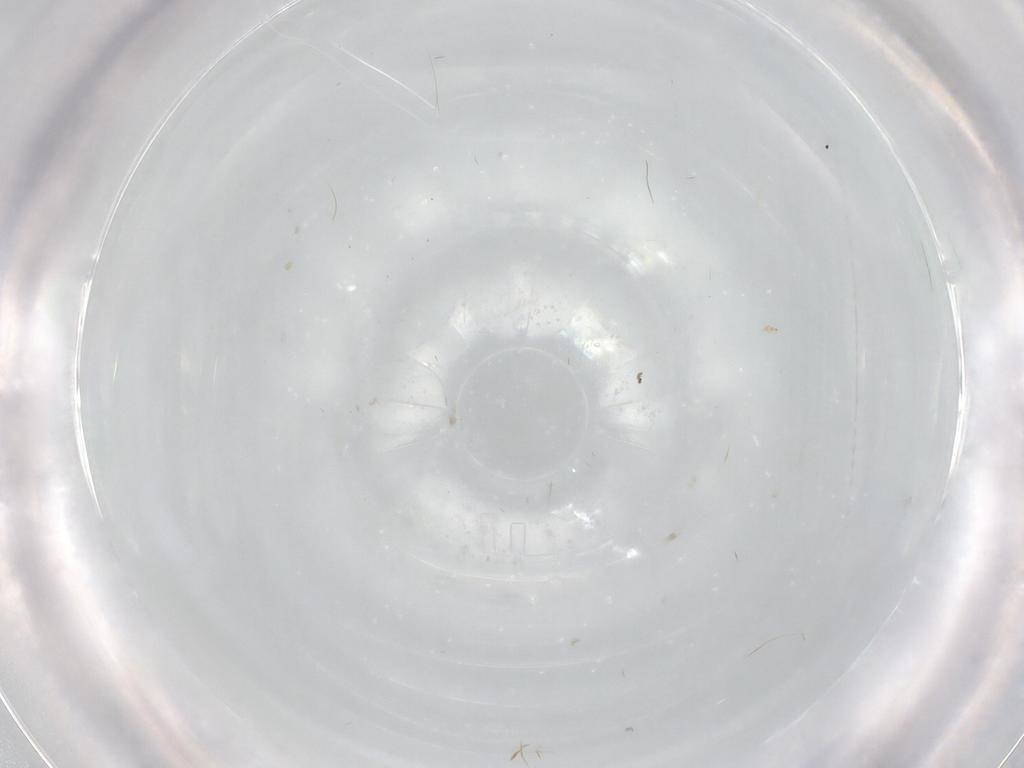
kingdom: Animalia
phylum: Arthropoda
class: Insecta
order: Diptera
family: Cecidomyiidae
